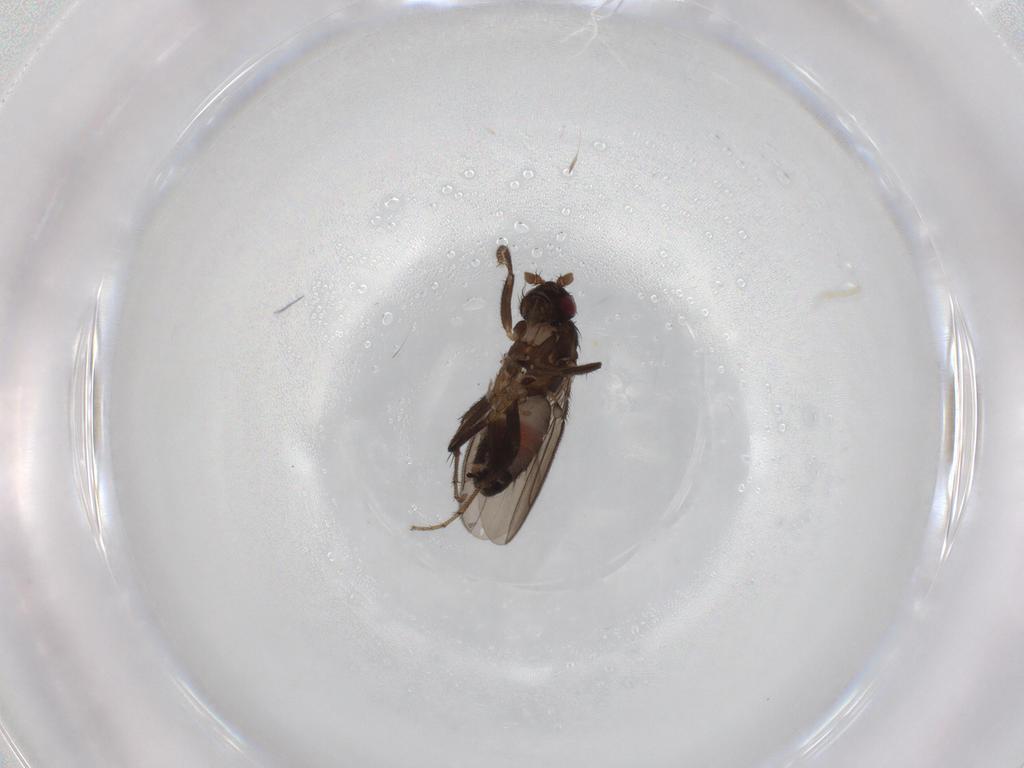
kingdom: Animalia
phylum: Arthropoda
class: Insecta
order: Diptera
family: Sphaeroceridae
